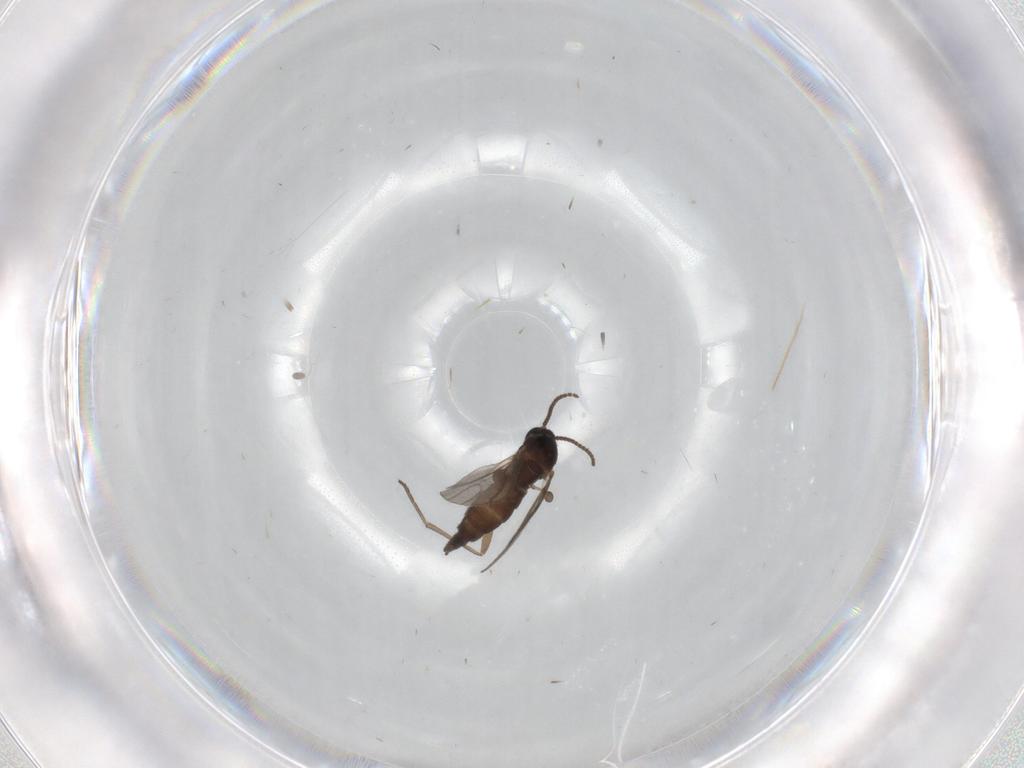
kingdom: Animalia
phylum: Arthropoda
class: Insecta
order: Diptera
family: Sciaridae
